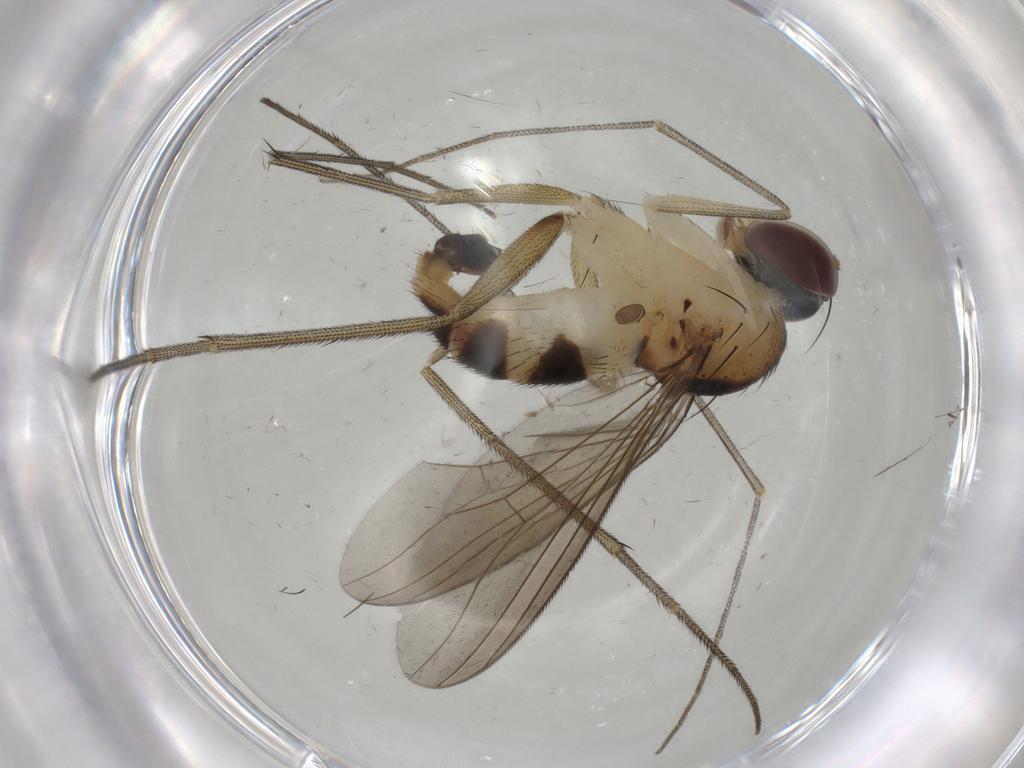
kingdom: Animalia
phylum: Arthropoda
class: Insecta
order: Diptera
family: Dolichopodidae
